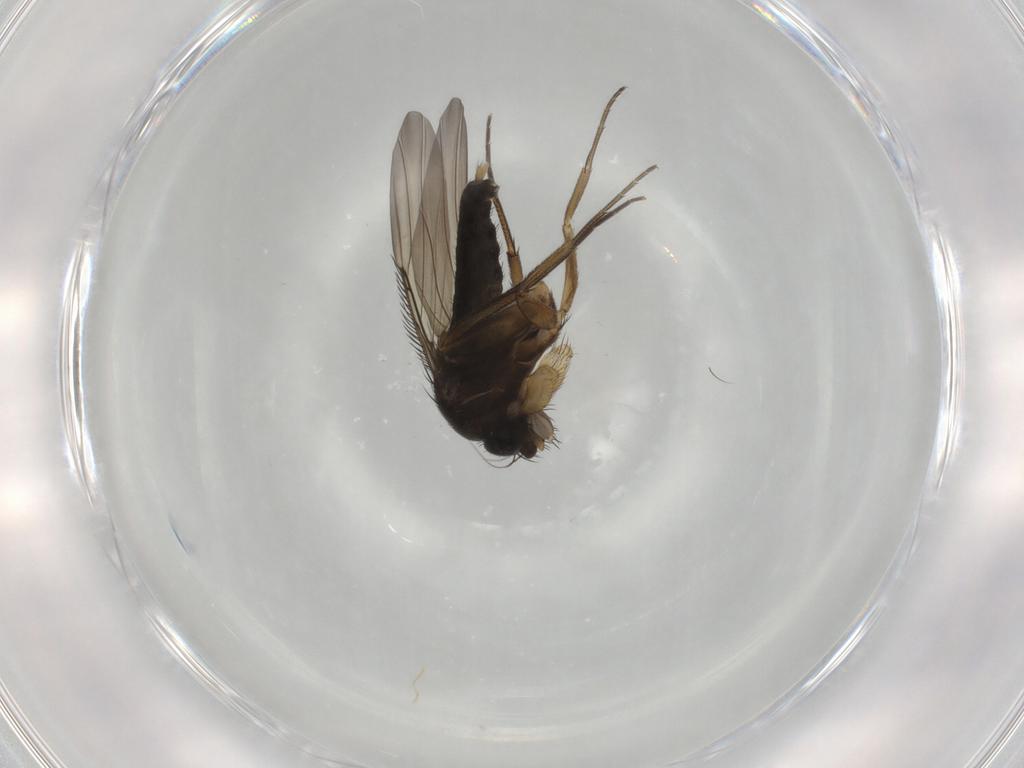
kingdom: Animalia
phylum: Arthropoda
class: Insecta
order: Diptera
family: Phoridae
